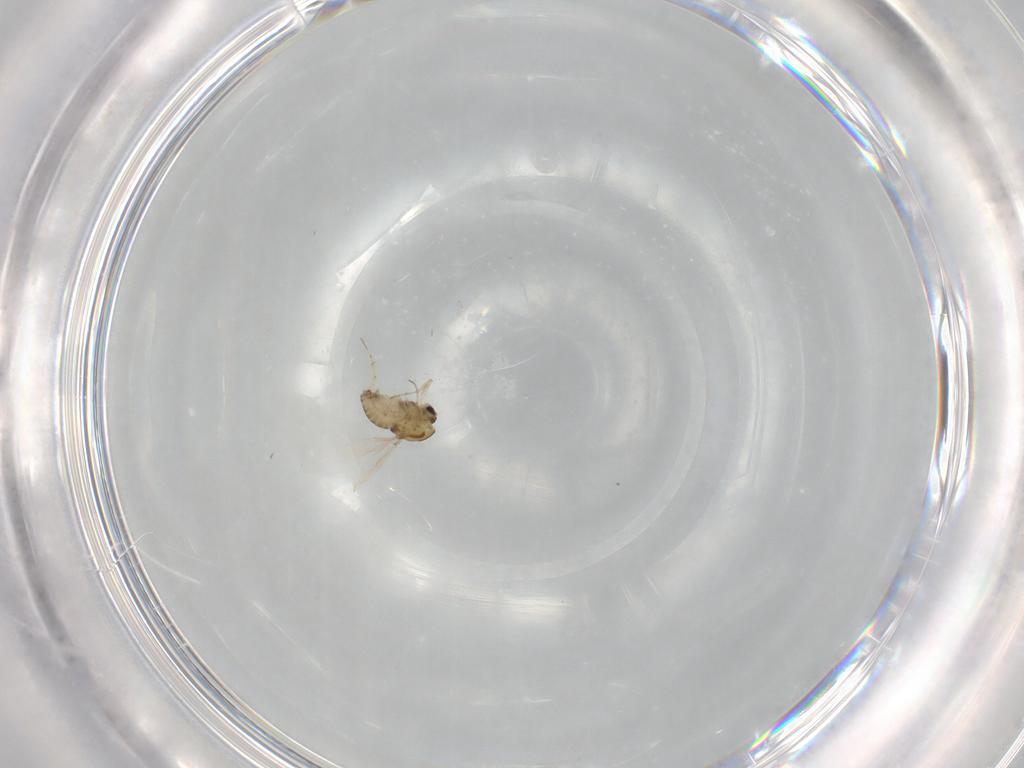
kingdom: Animalia
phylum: Arthropoda
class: Insecta
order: Diptera
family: Chironomidae
